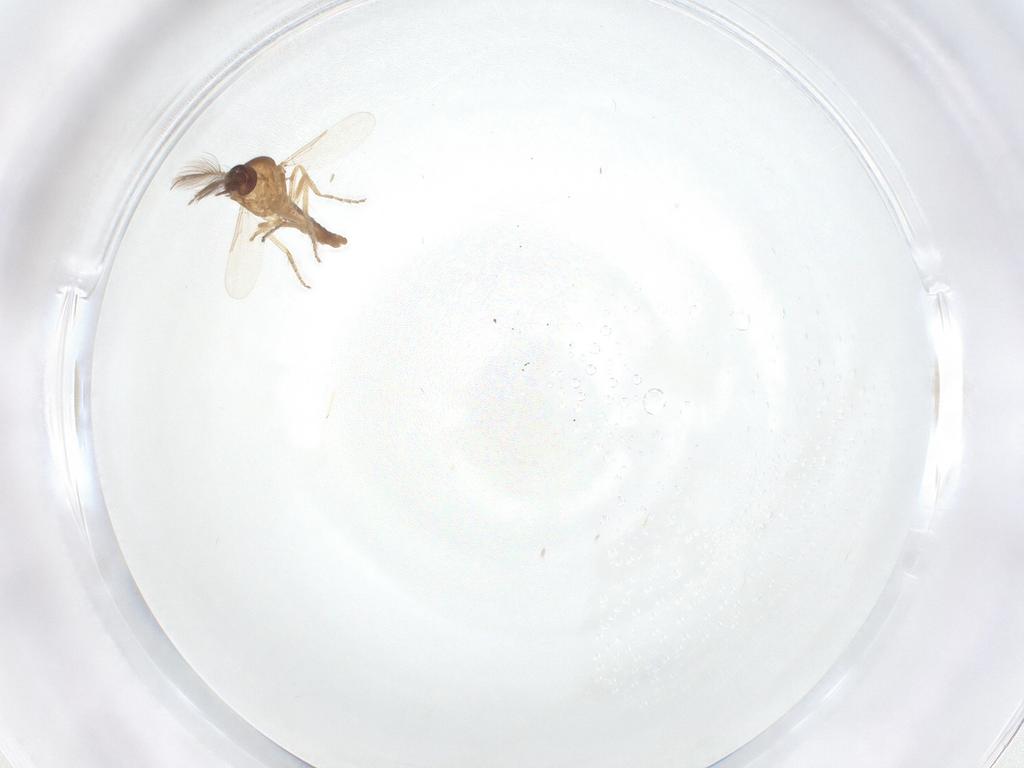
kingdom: Animalia
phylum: Arthropoda
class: Insecta
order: Diptera
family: Ceratopogonidae
